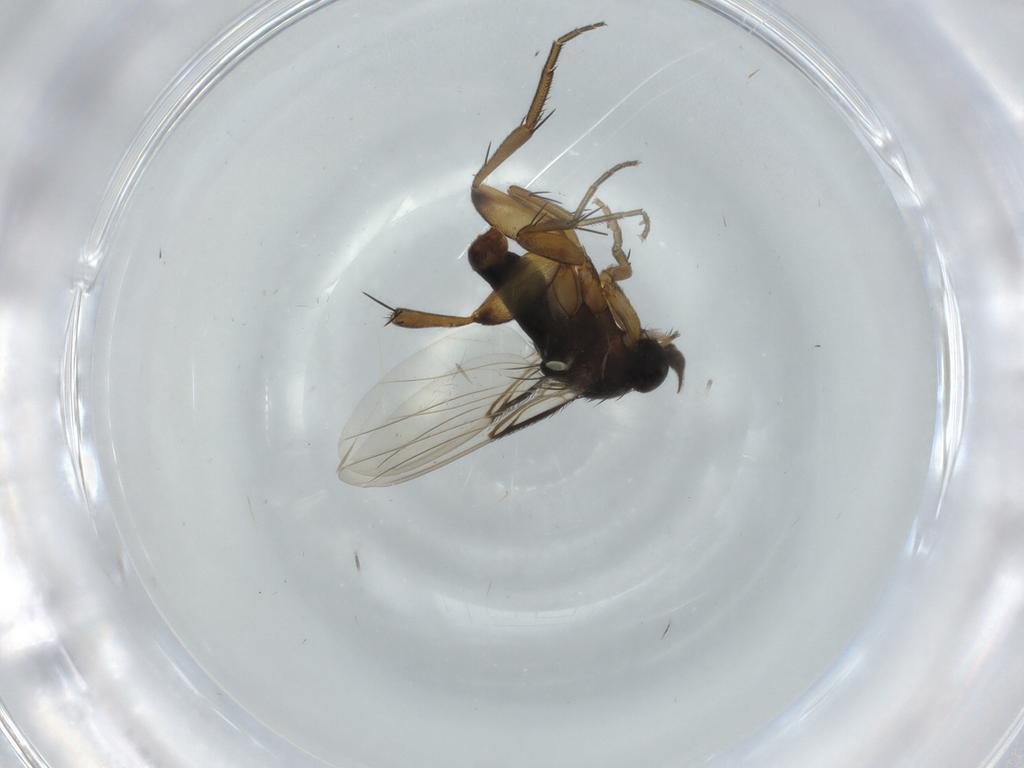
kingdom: Animalia
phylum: Arthropoda
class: Insecta
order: Diptera
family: Phoridae
